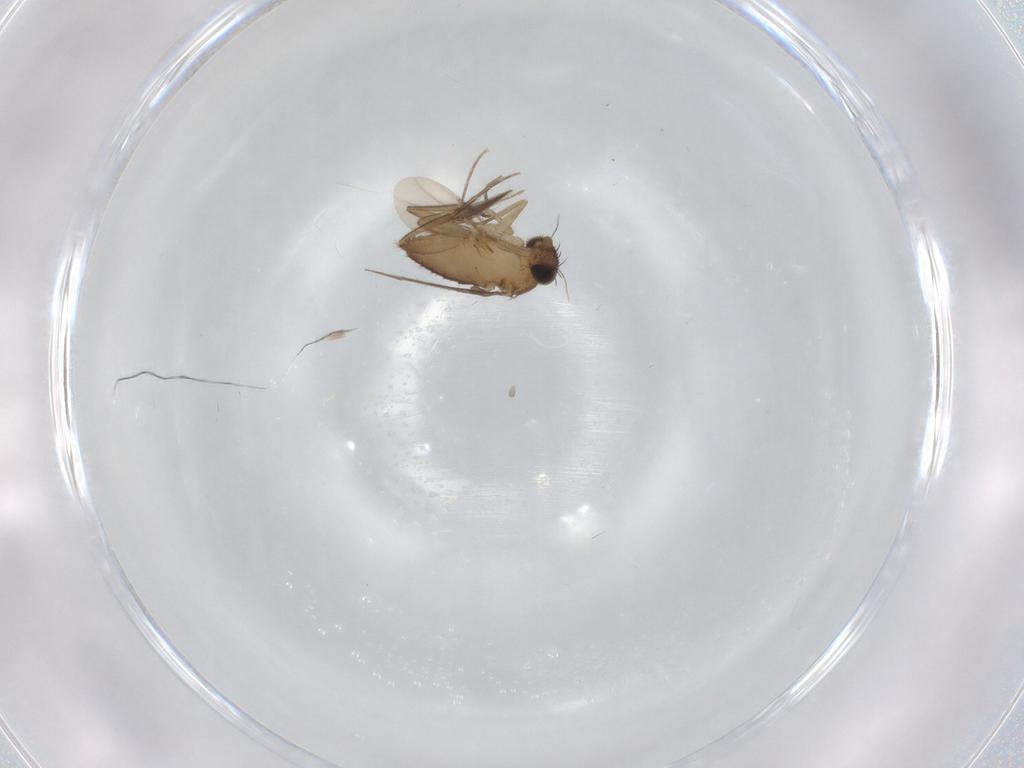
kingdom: Animalia
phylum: Arthropoda
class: Insecta
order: Diptera
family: Phoridae
